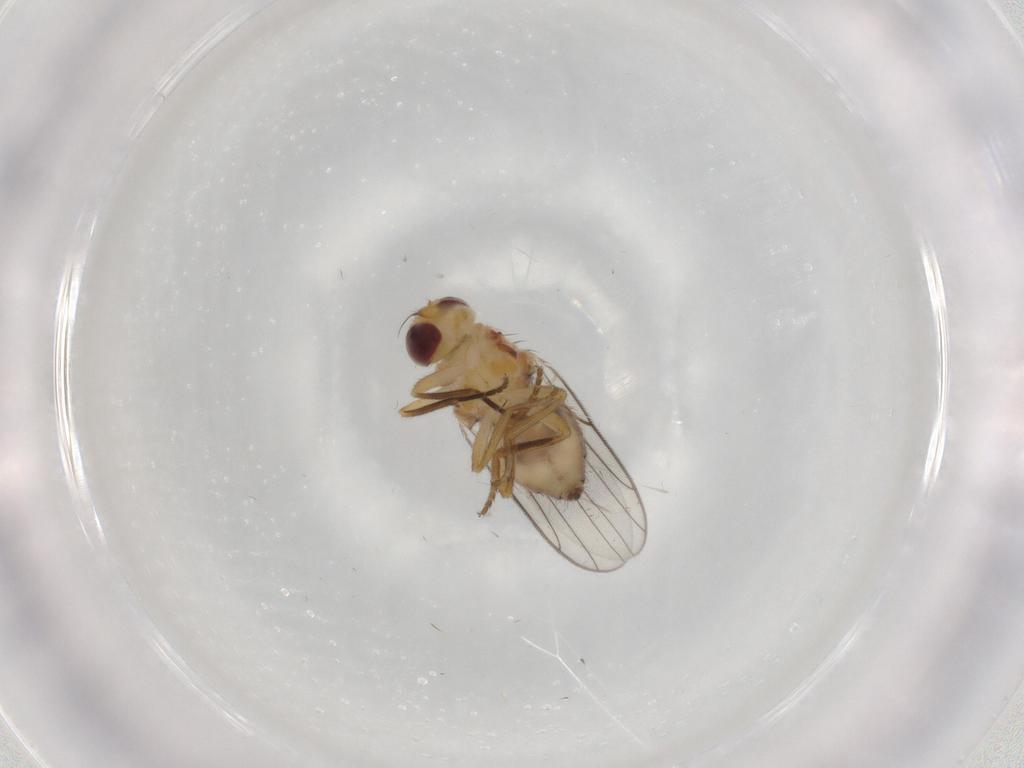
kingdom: Animalia
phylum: Arthropoda
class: Insecta
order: Diptera
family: Chloropidae
